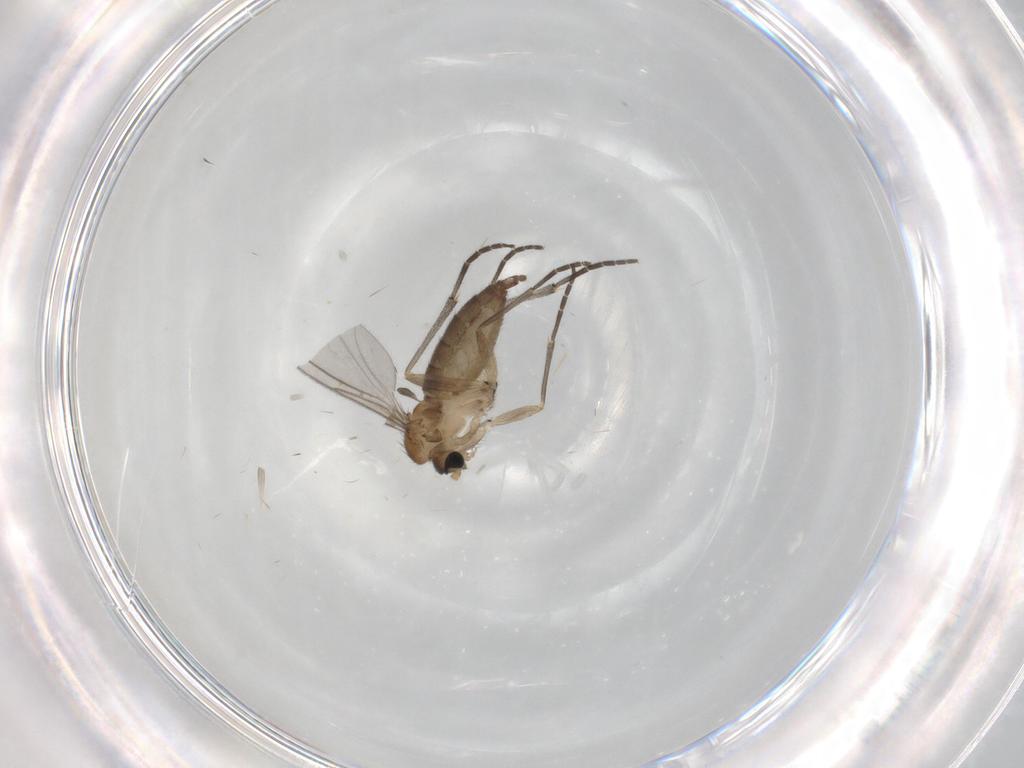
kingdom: Animalia
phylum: Arthropoda
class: Insecta
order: Diptera
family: Sciaridae
